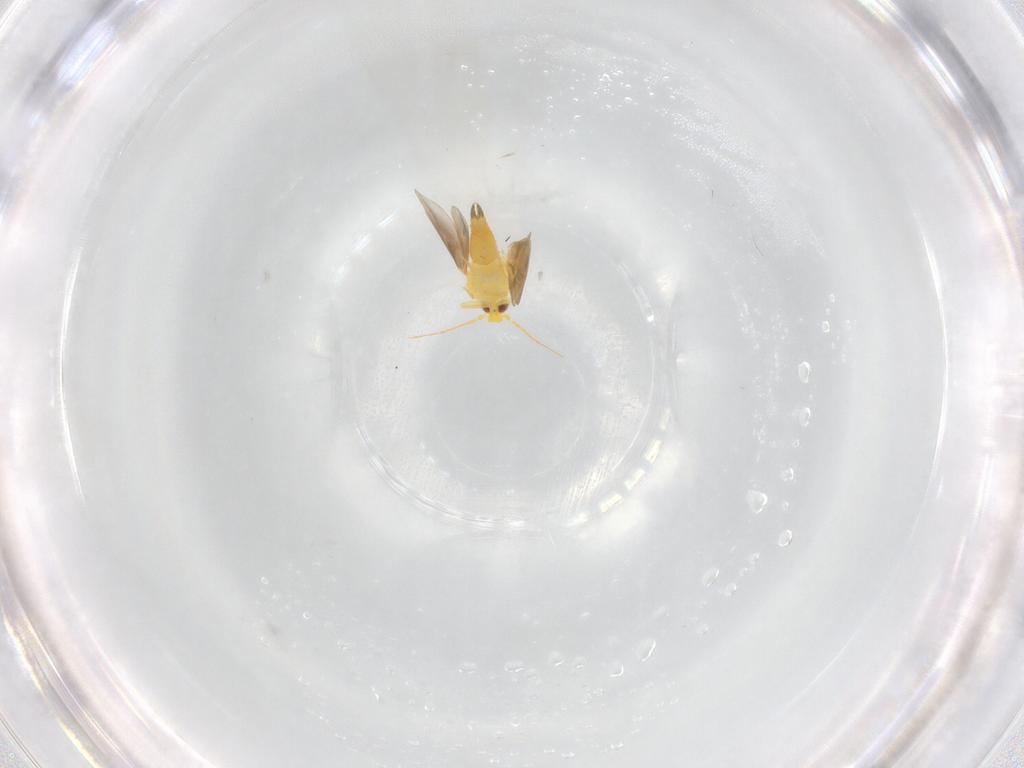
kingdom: Animalia
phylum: Arthropoda
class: Insecta
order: Hemiptera
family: Aleyrodidae
